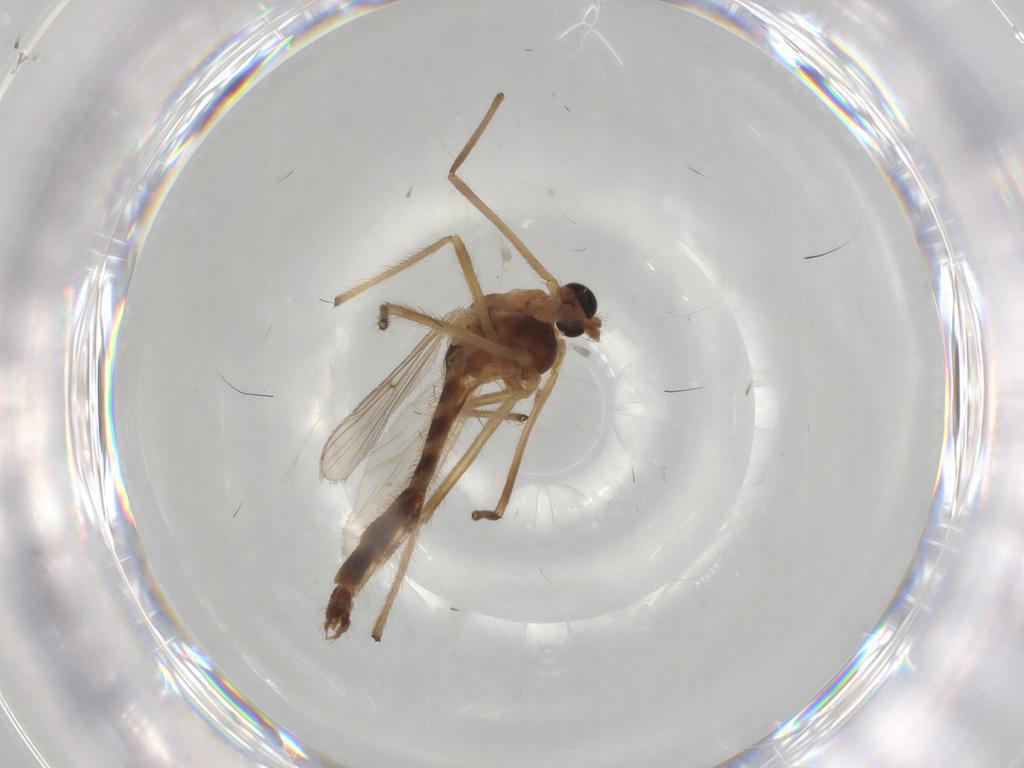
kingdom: Animalia
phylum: Arthropoda
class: Insecta
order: Diptera
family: Chironomidae
